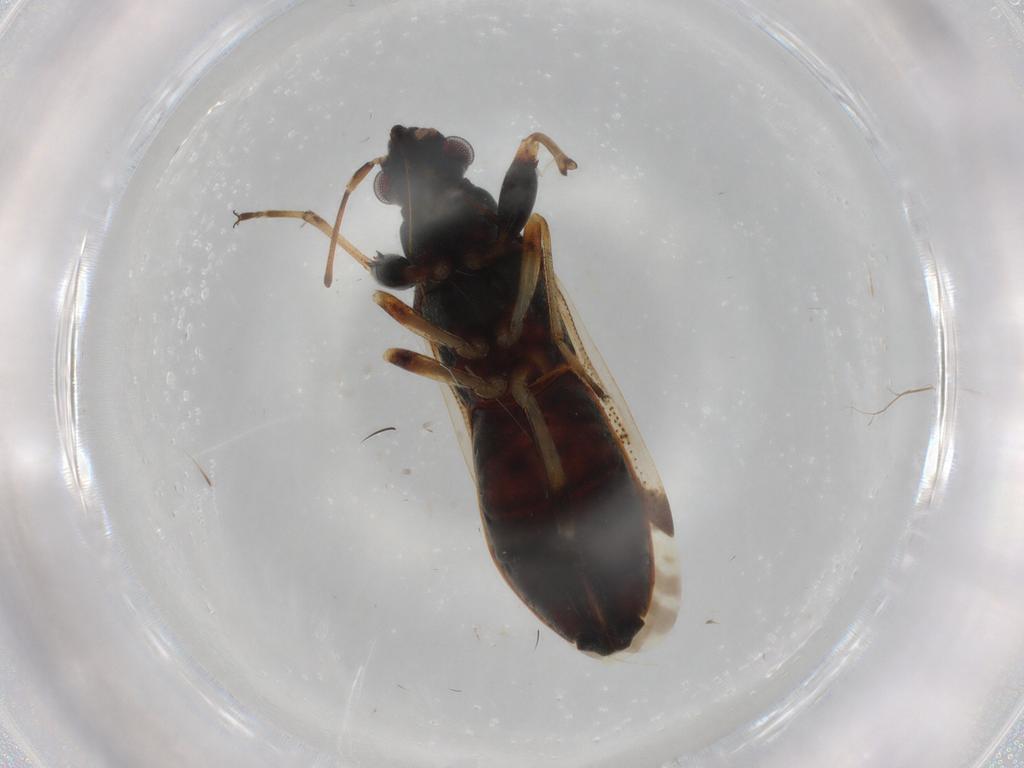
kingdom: Animalia
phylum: Arthropoda
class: Insecta
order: Hemiptera
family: Rhyparochromidae
